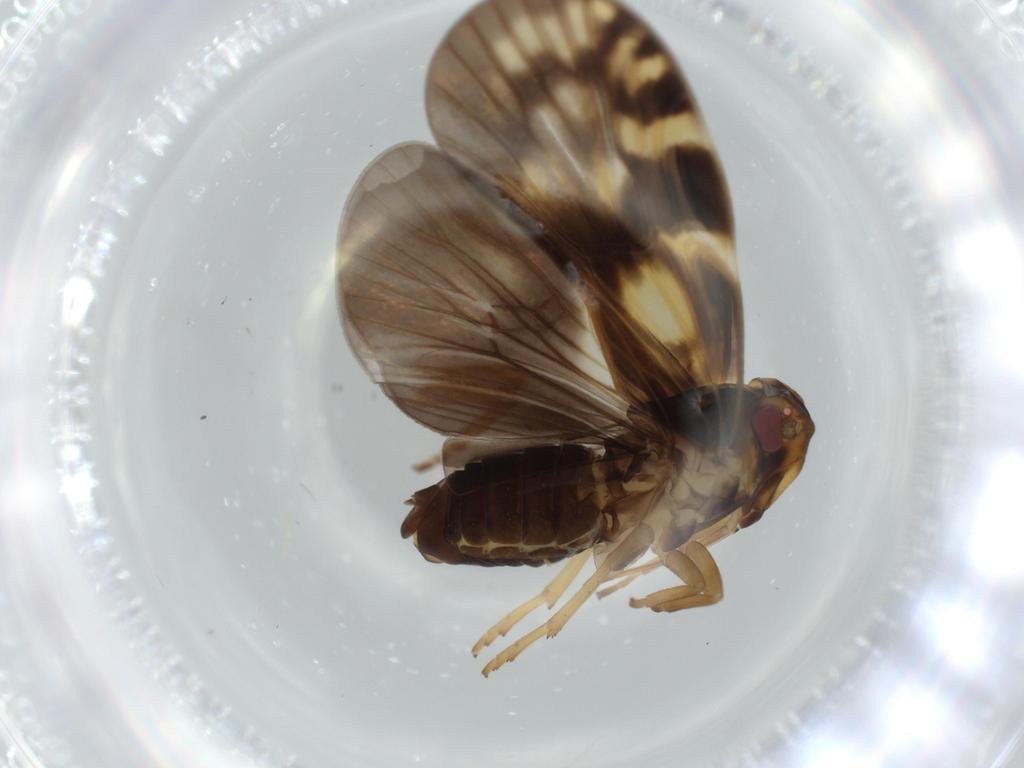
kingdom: Animalia
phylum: Arthropoda
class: Insecta
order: Hemiptera
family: Cixiidae
